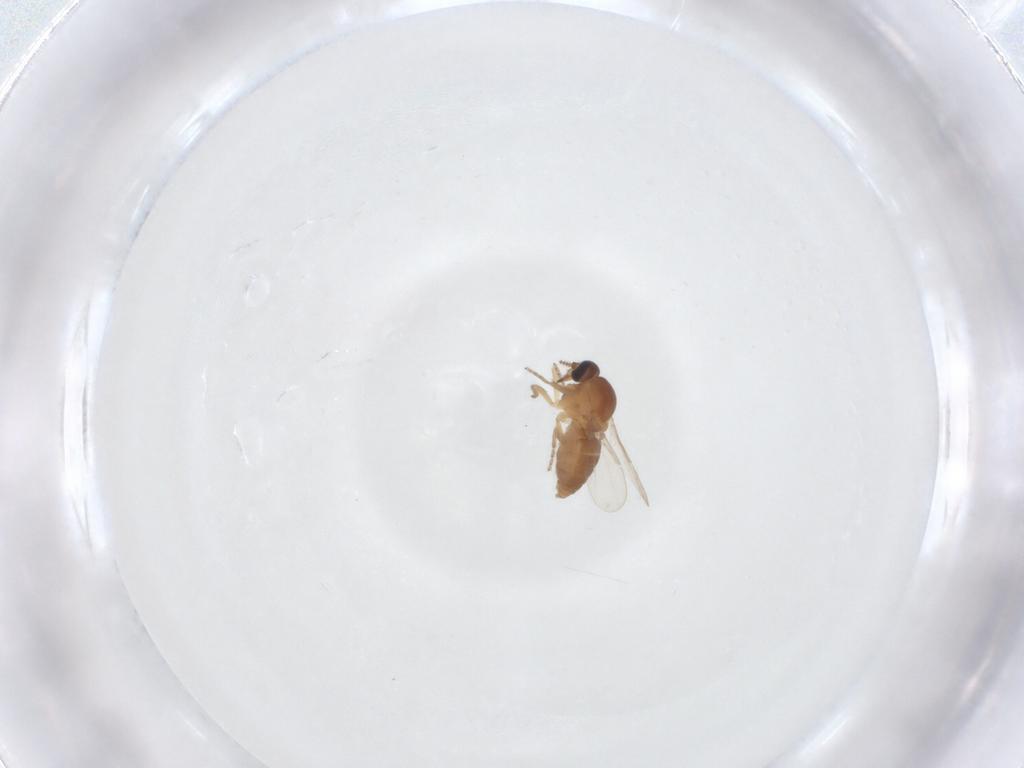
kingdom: Animalia
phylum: Arthropoda
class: Insecta
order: Diptera
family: Ceratopogonidae
